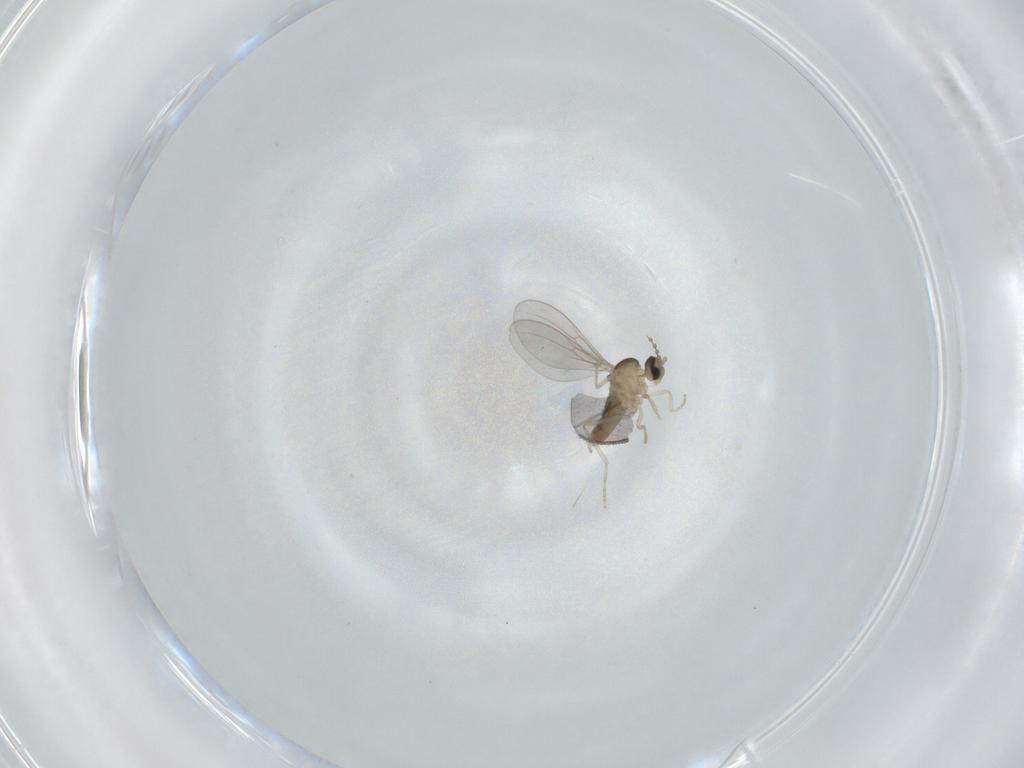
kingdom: Animalia
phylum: Arthropoda
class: Insecta
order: Diptera
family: Cecidomyiidae
